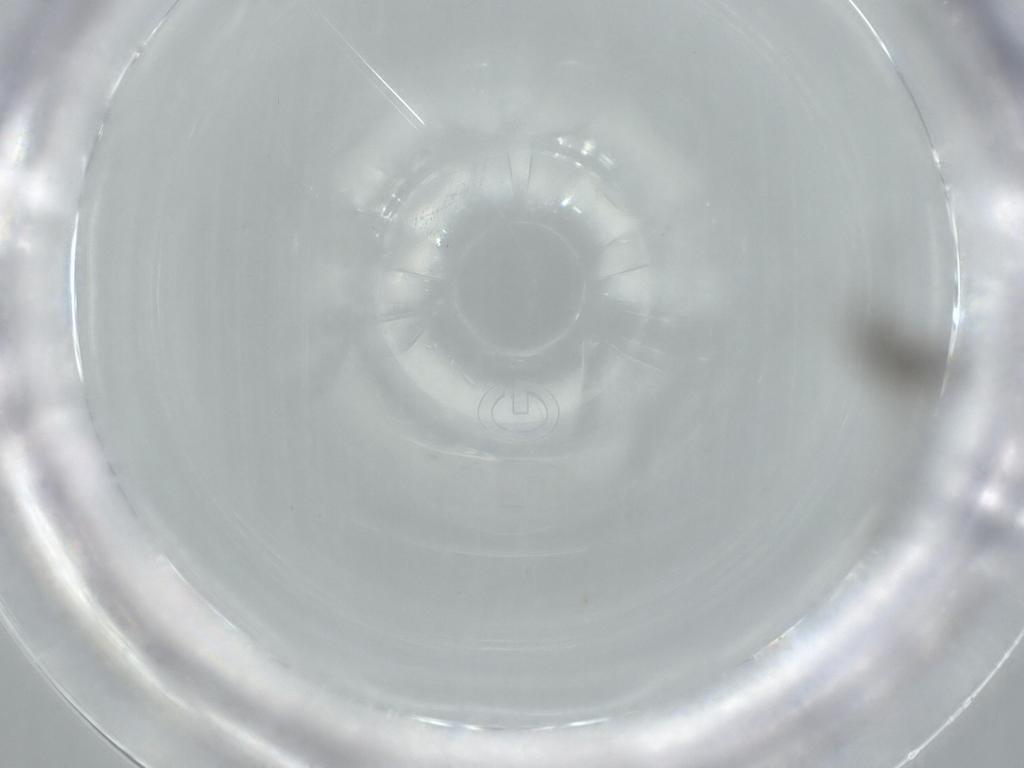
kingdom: Animalia
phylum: Arthropoda
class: Insecta
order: Diptera
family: Cecidomyiidae
